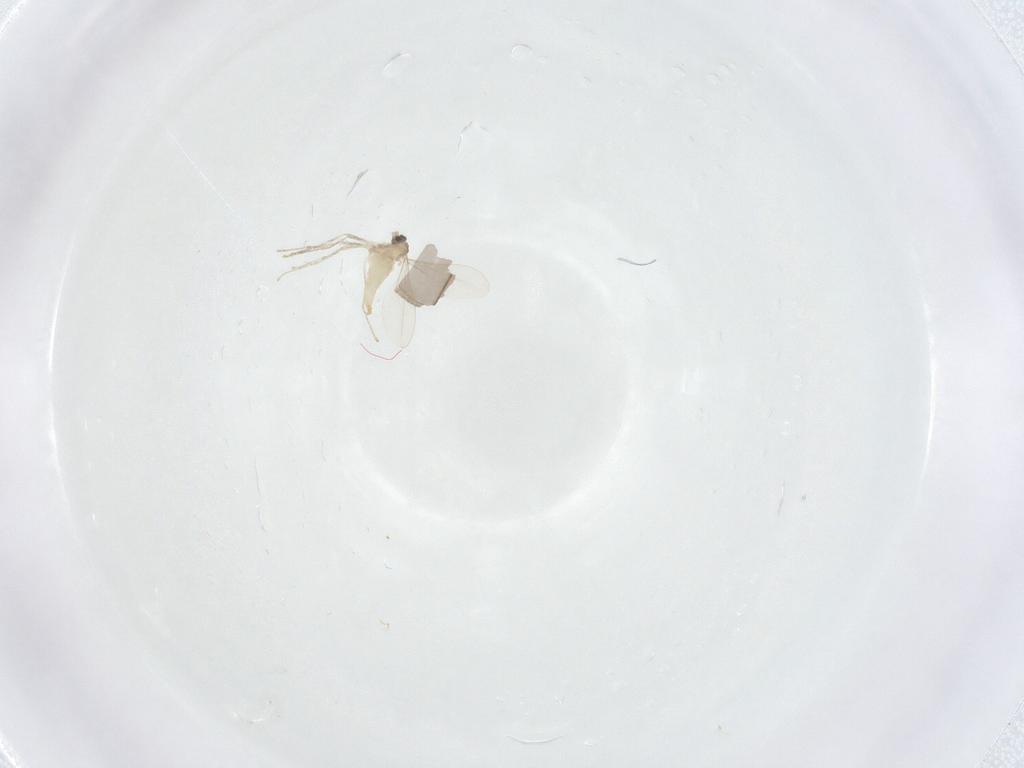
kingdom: Animalia
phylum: Arthropoda
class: Insecta
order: Diptera
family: Cecidomyiidae
